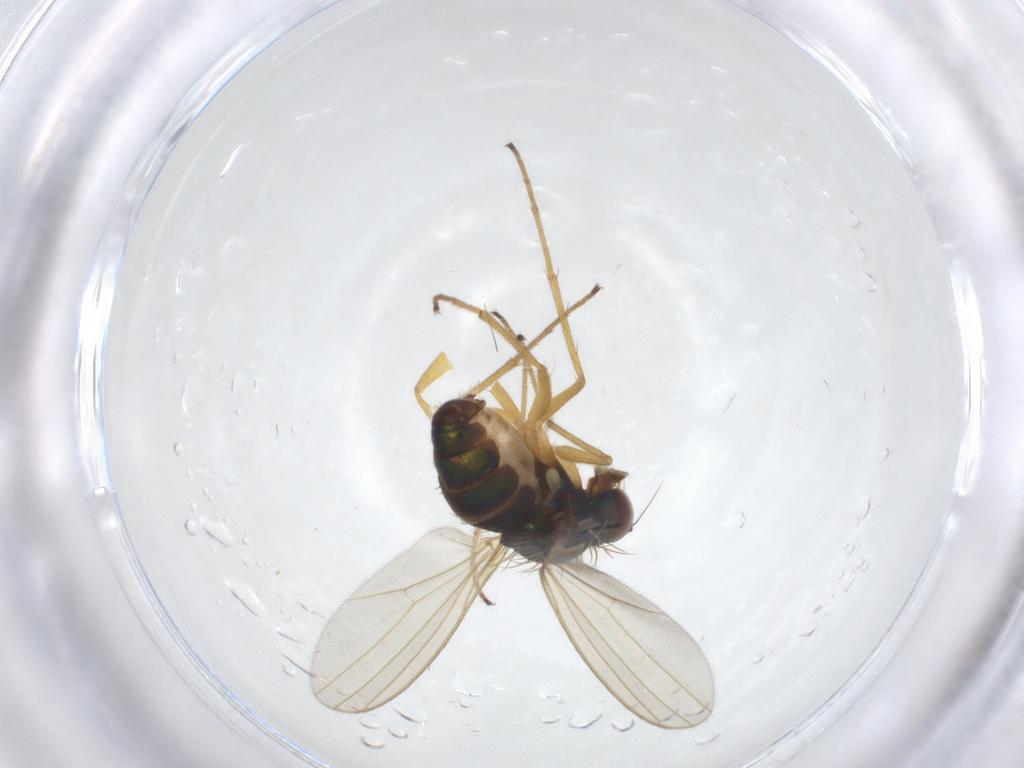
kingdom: Animalia
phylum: Arthropoda
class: Insecta
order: Diptera
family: Dolichopodidae
